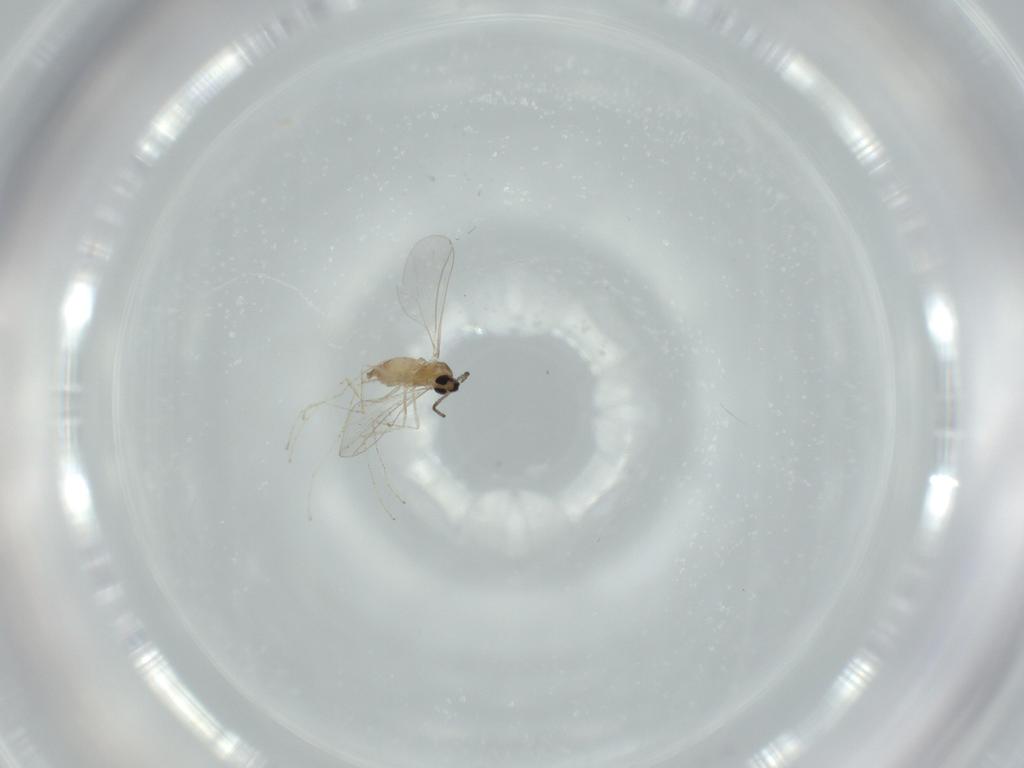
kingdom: Animalia
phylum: Arthropoda
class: Insecta
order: Diptera
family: Cecidomyiidae
